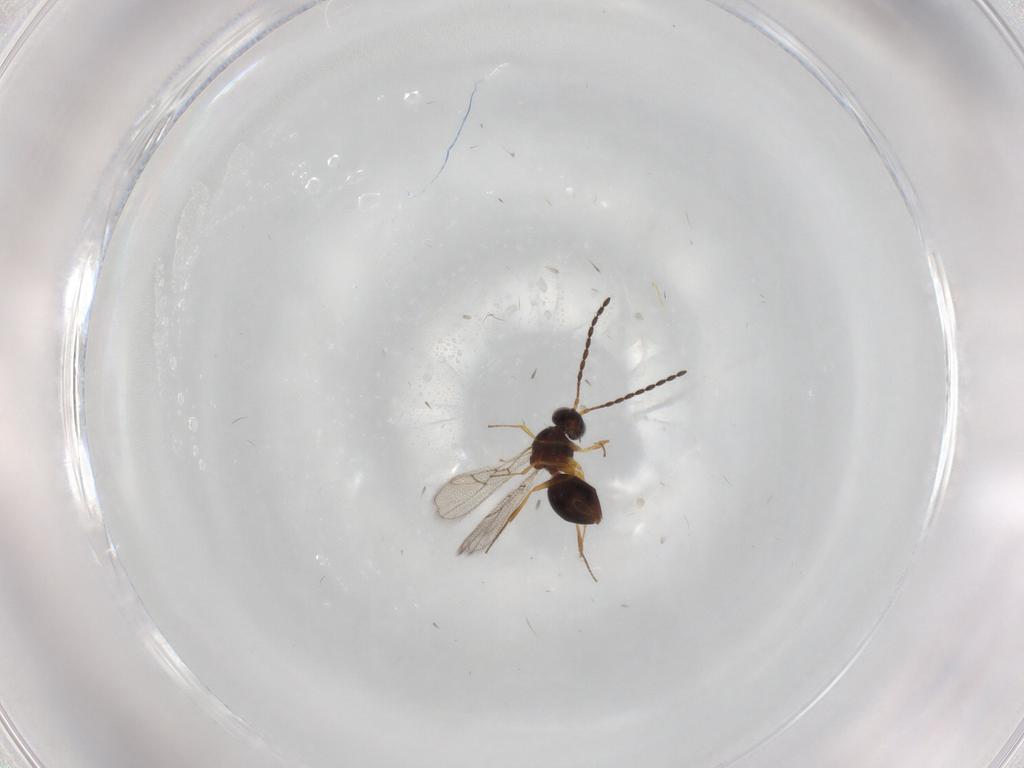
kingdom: Animalia
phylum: Arthropoda
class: Insecta
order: Hymenoptera
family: Figitidae
